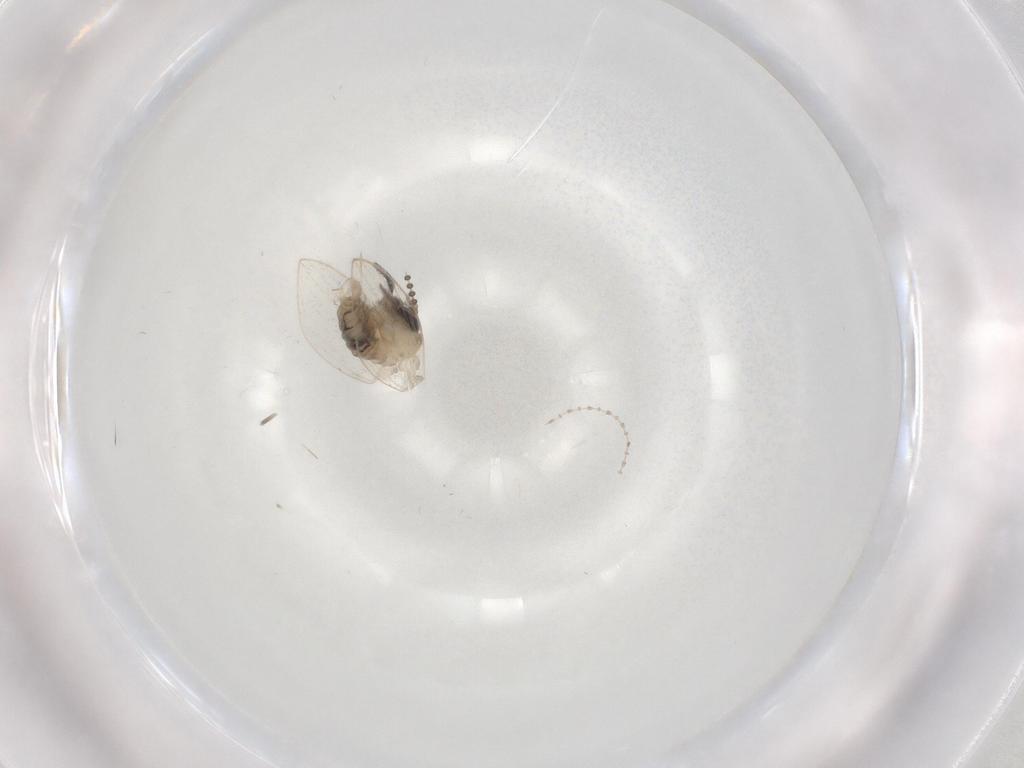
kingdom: Animalia
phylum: Arthropoda
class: Insecta
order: Diptera
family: Psychodidae
